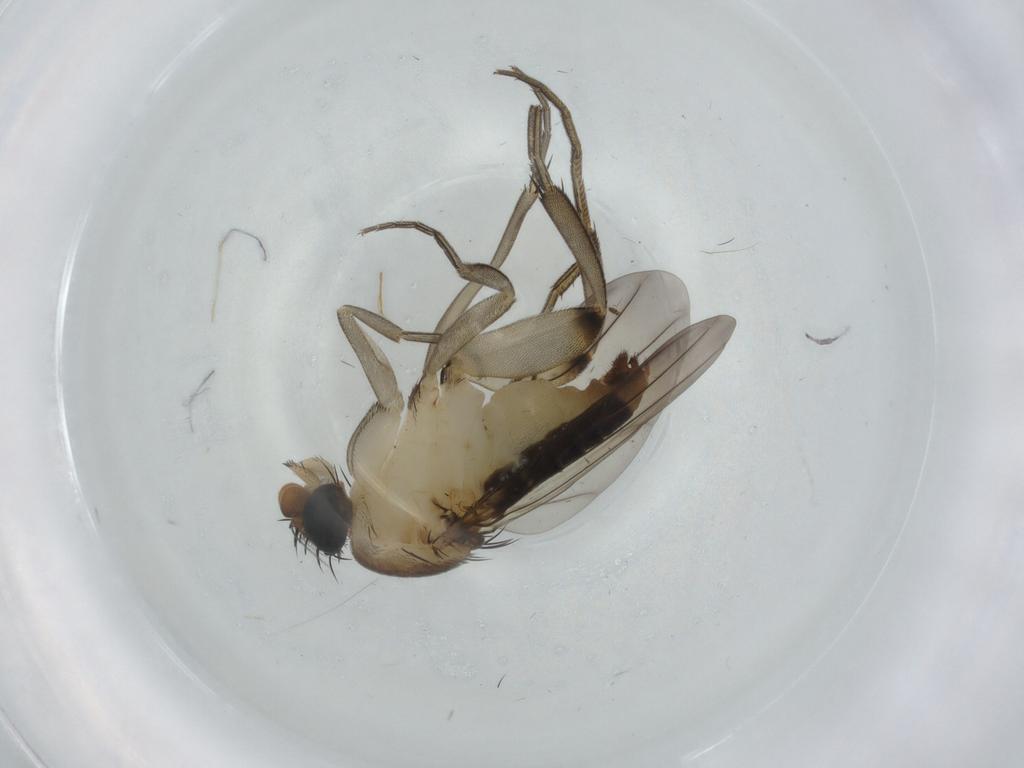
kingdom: Animalia
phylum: Arthropoda
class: Insecta
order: Diptera
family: Phoridae
